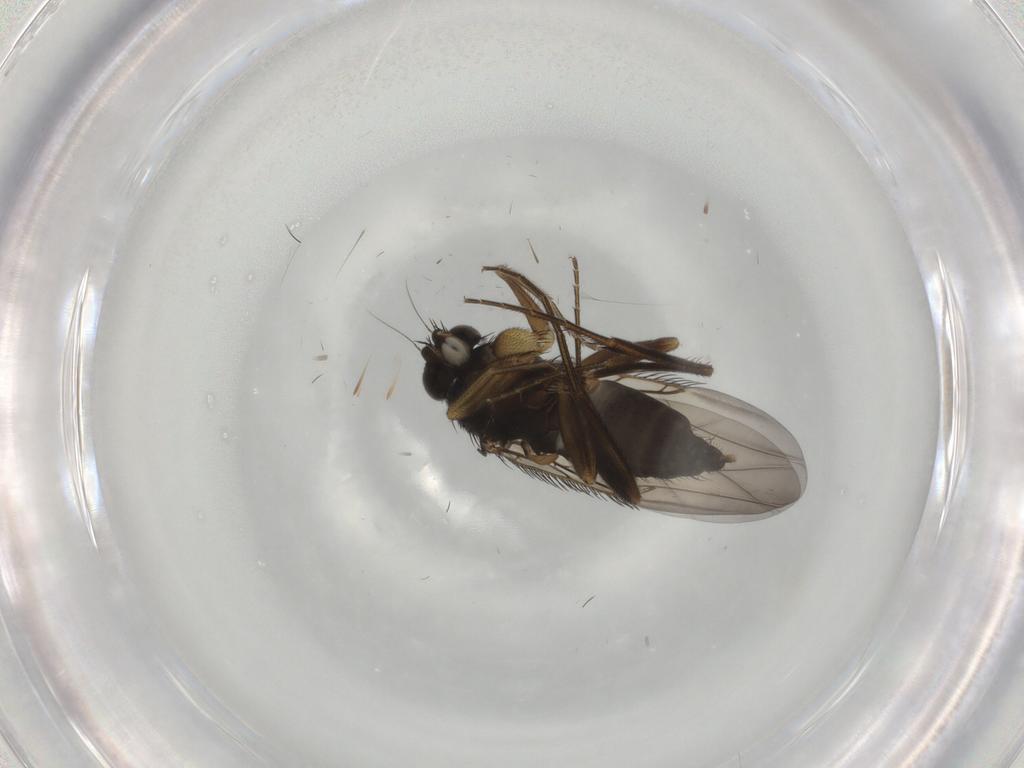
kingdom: Animalia
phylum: Arthropoda
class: Insecta
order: Diptera
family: Phoridae
